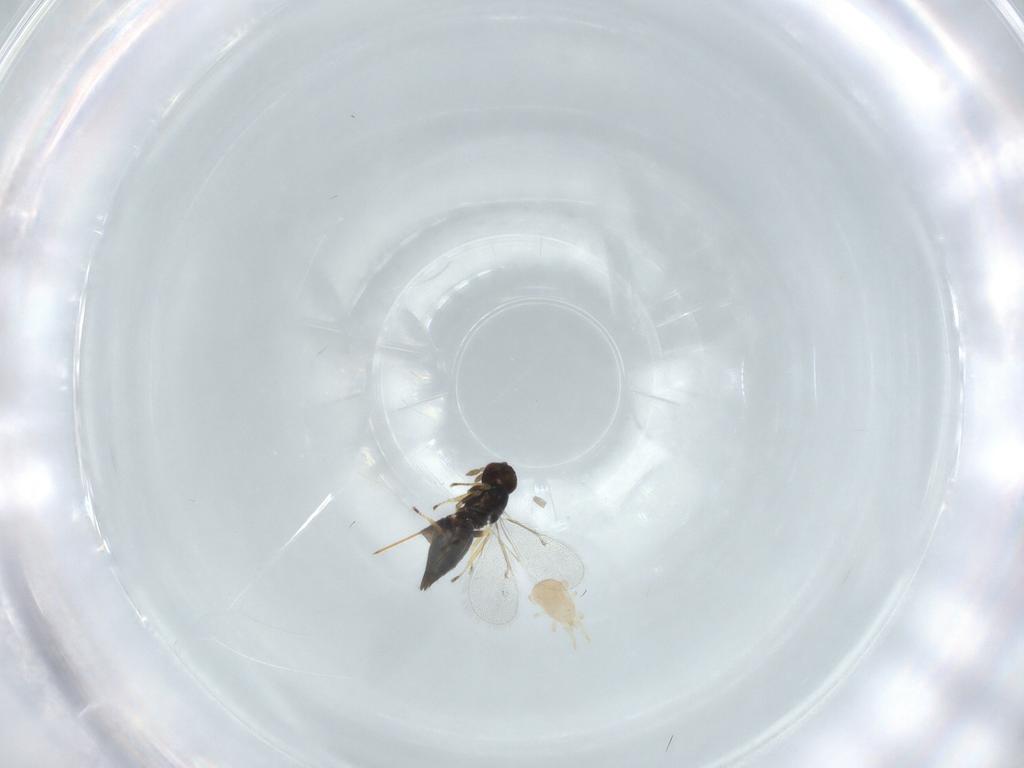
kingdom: Animalia
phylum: Arthropoda
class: Insecta
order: Hymenoptera
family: Eulophidae
